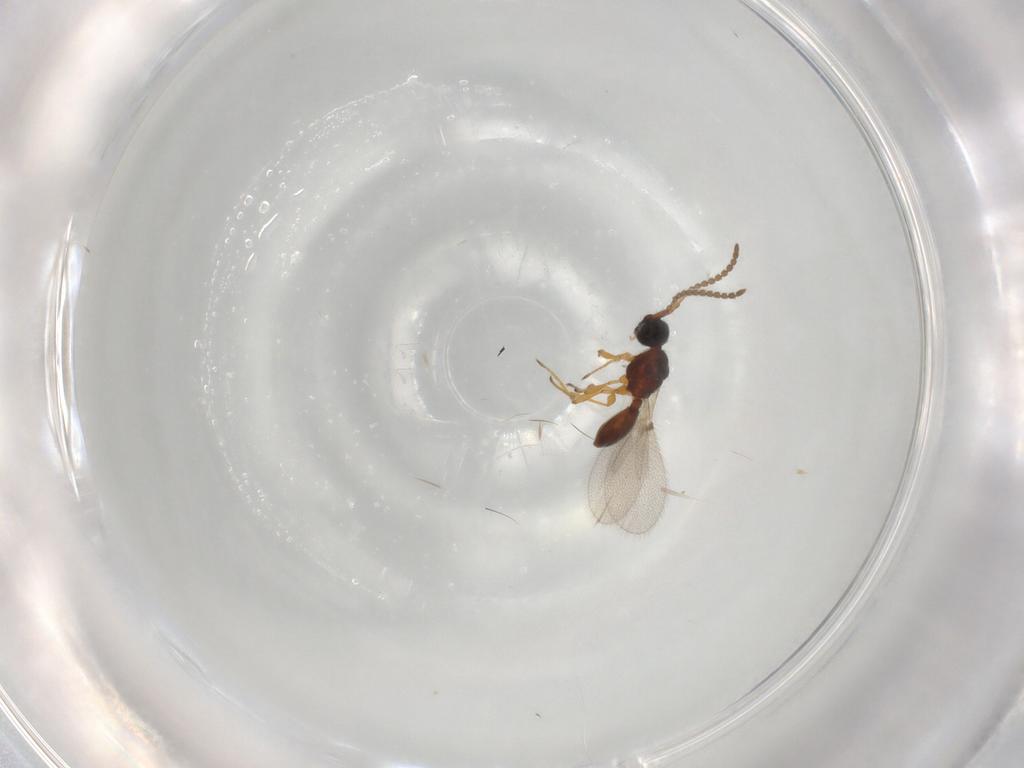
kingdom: Animalia
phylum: Arthropoda
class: Insecta
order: Hymenoptera
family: Diapriidae
